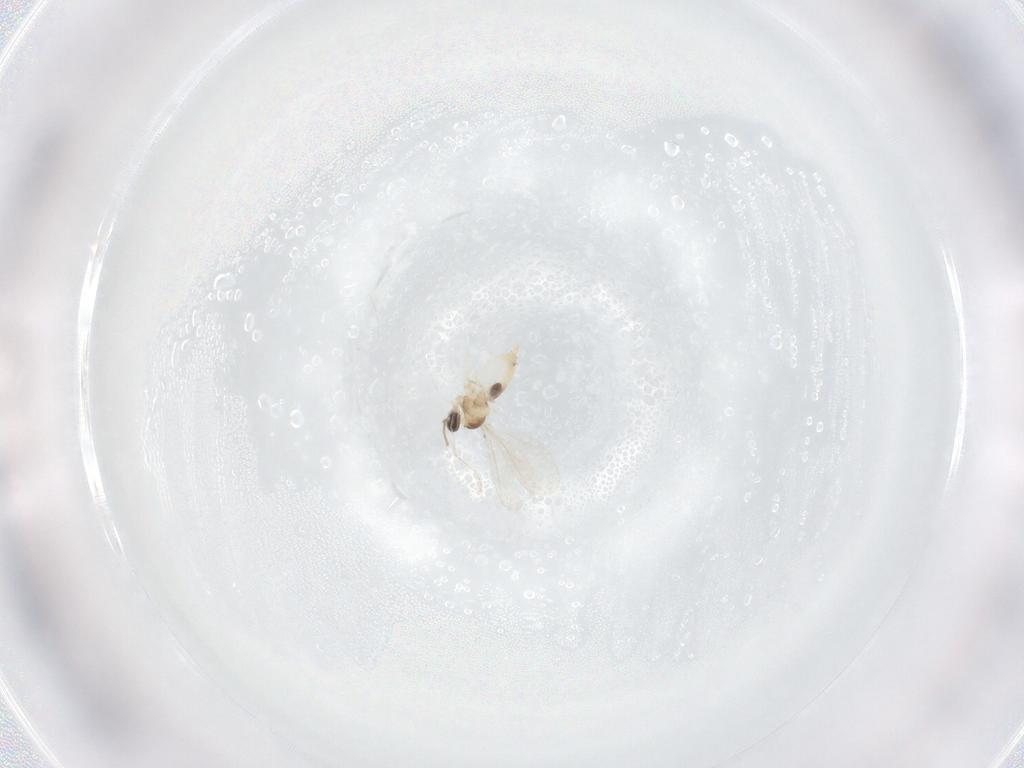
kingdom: Animalia
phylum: Arthropoda
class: Insecta
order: Diptera
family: Cecidomyiidae
